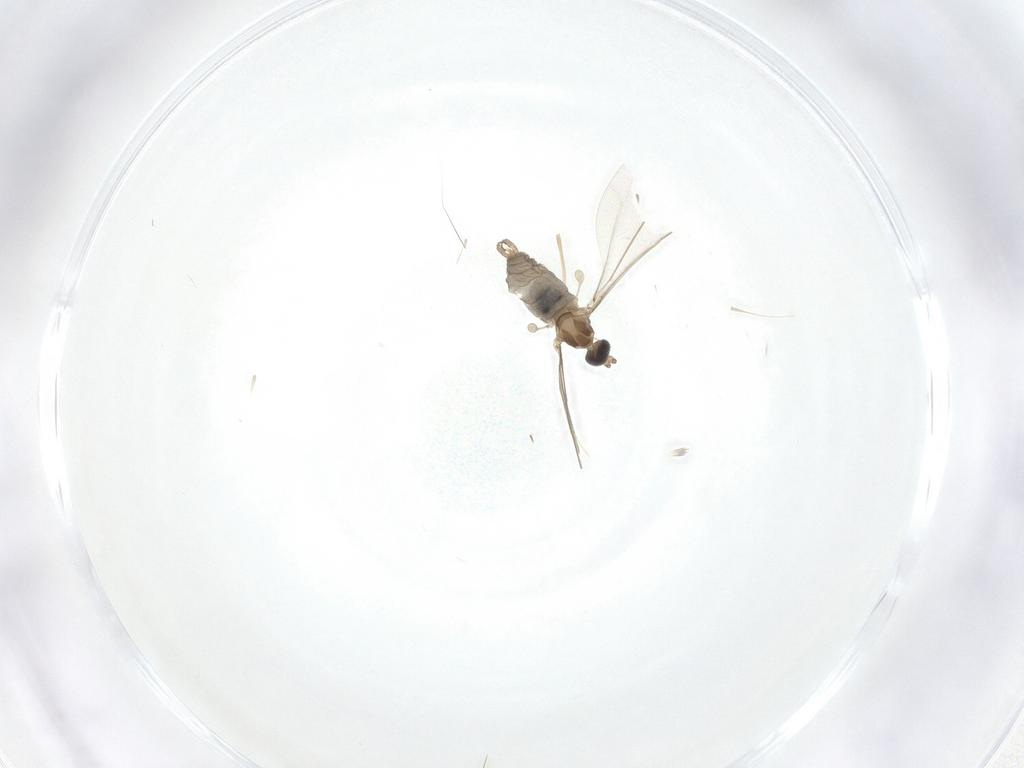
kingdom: Animalia
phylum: Arthropoda
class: Insecta
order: Diptera
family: Cecidomyiidae
